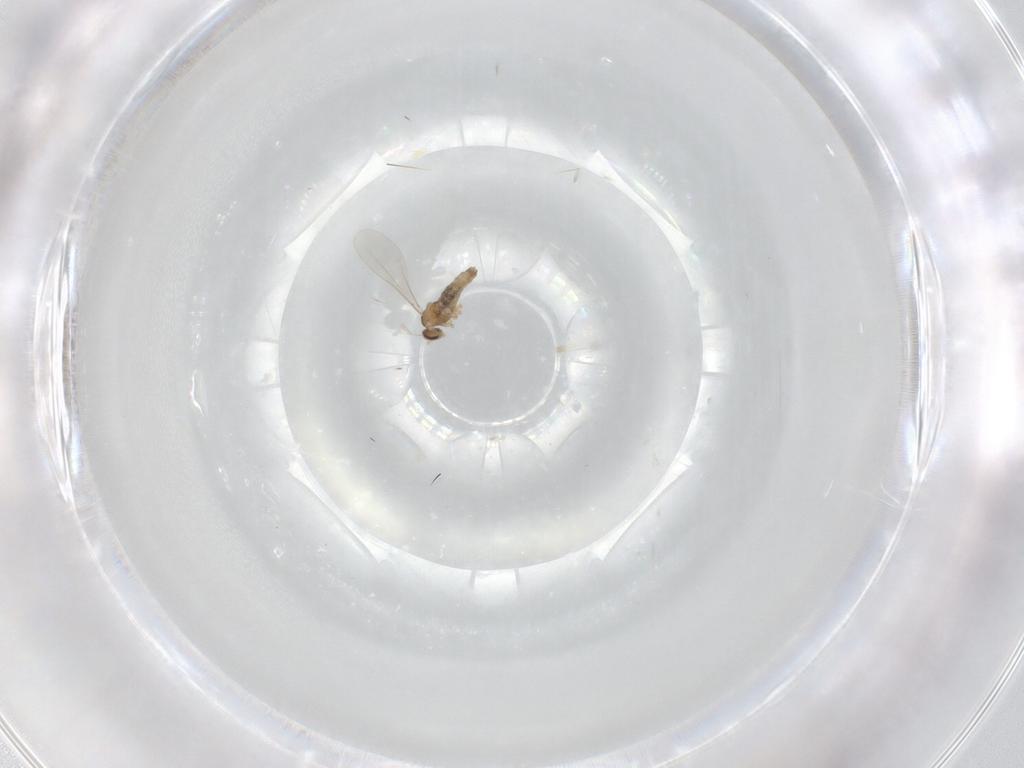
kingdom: Animalia
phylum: Arthropoda
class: Insecta
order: Diptera
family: Cecidomyiidae
